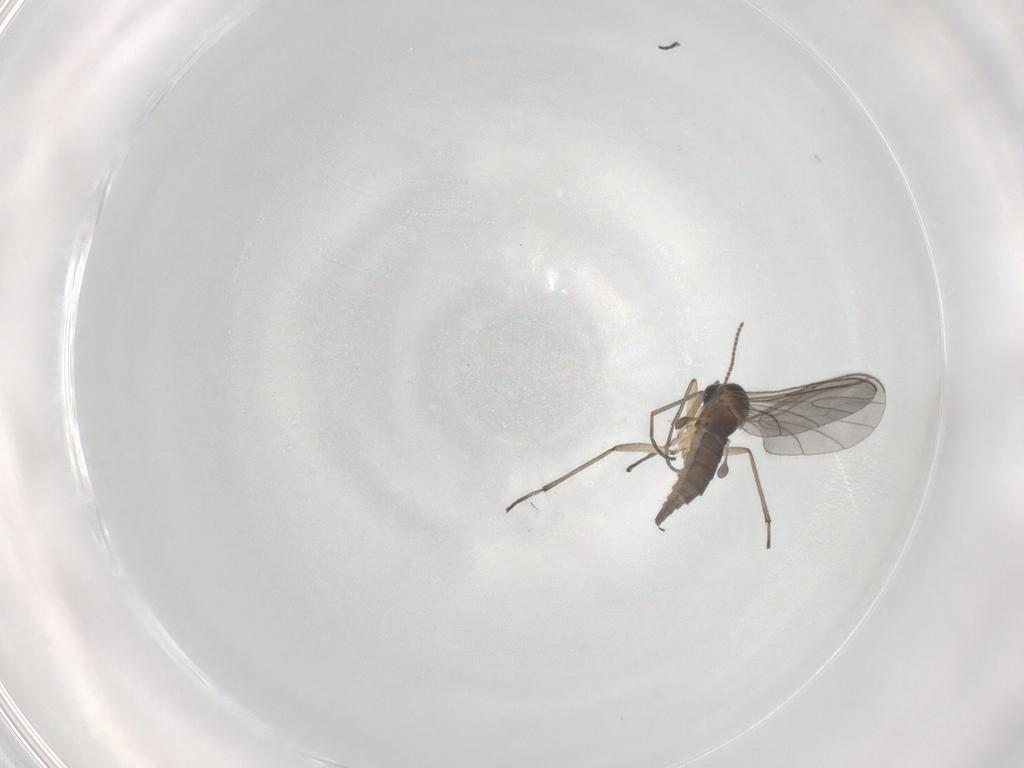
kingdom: Animalia
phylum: Arthropoda
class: Insecta
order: Diptera
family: Sciaridae
